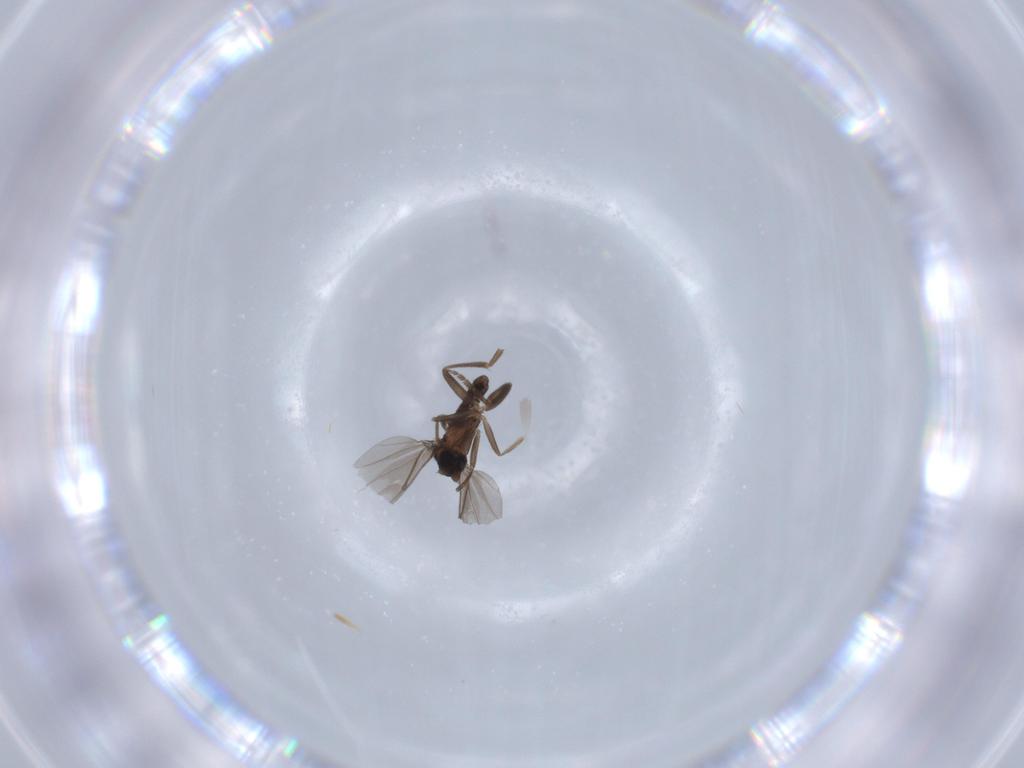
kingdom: Animalia
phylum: Arthropoda
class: Insecta
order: Diptera
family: Phoridae
